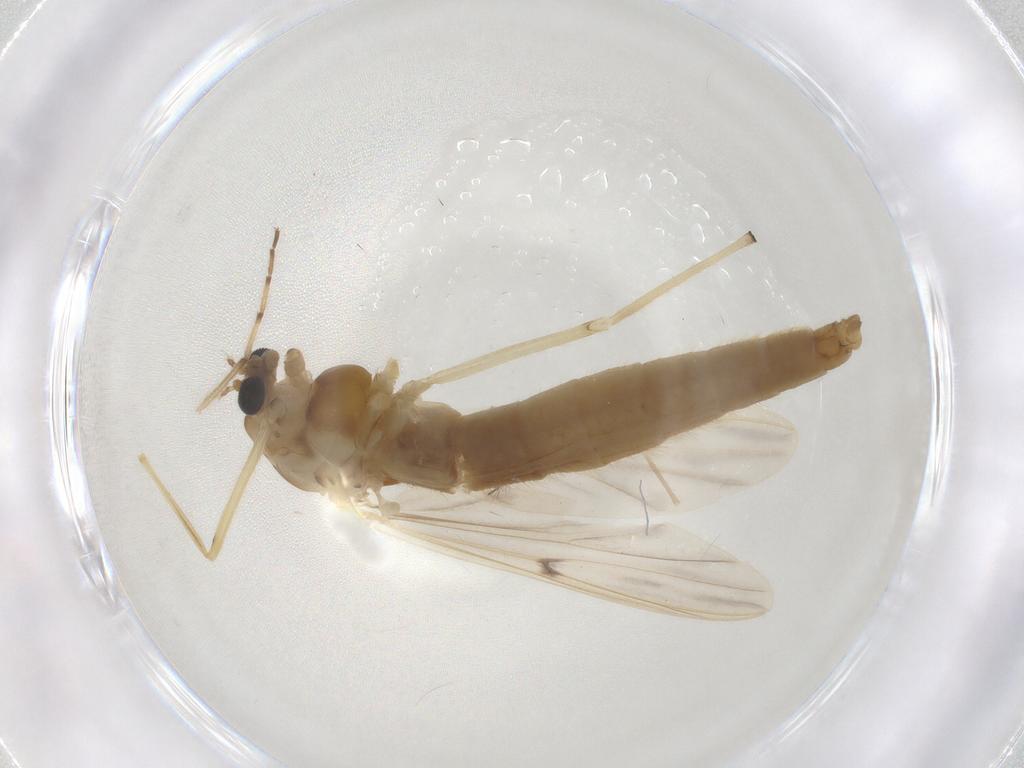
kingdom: Animalia
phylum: Arthropoda
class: Insecta
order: Diptera
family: Chironomidae
